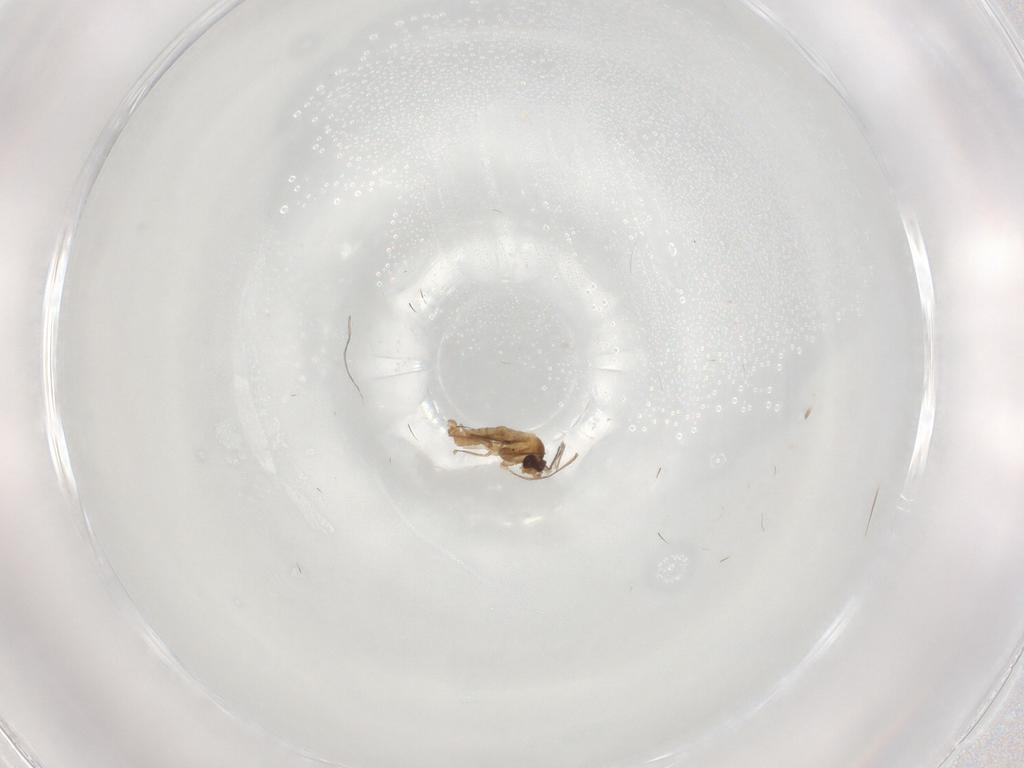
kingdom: Animalia
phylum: Arthropoda
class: Insecta
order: Diptera
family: Cecidomyiidae
